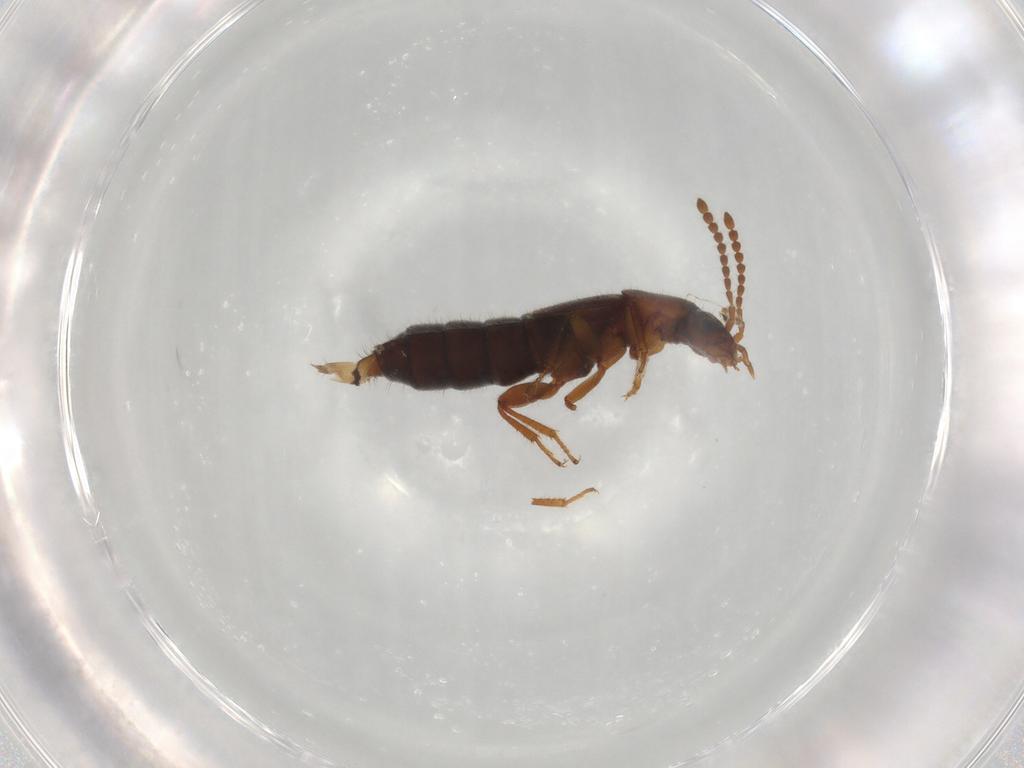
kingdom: Animalia
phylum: Arthropoda
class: Insecta
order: Coleoptera
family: Staphylinidae
